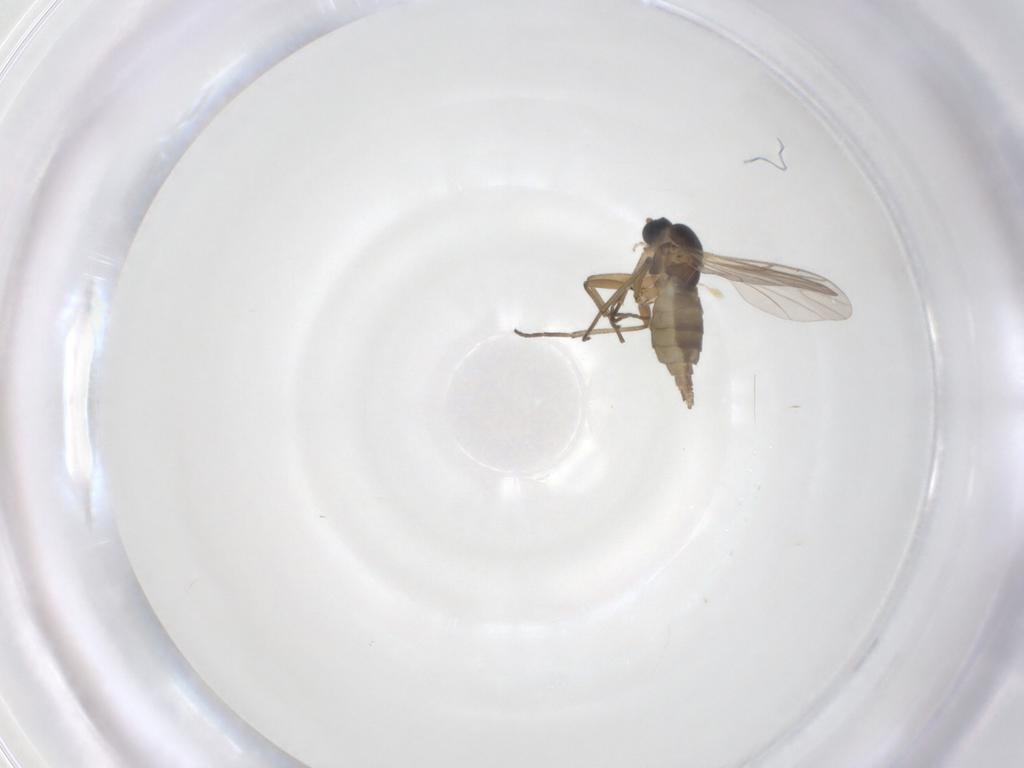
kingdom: Animalia
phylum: Arthropoda
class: Insecta
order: Diptera
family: Sciaridae
